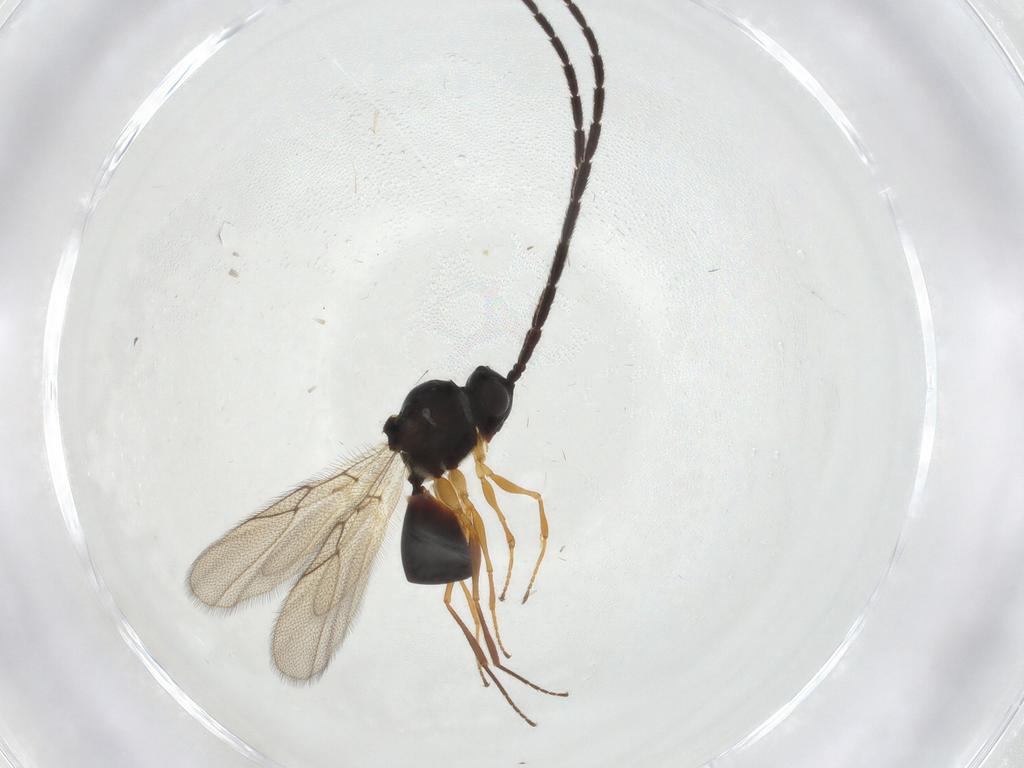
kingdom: Animalia
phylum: Arthropoda
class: Insecta
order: Hymenoptera
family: Figitidae
